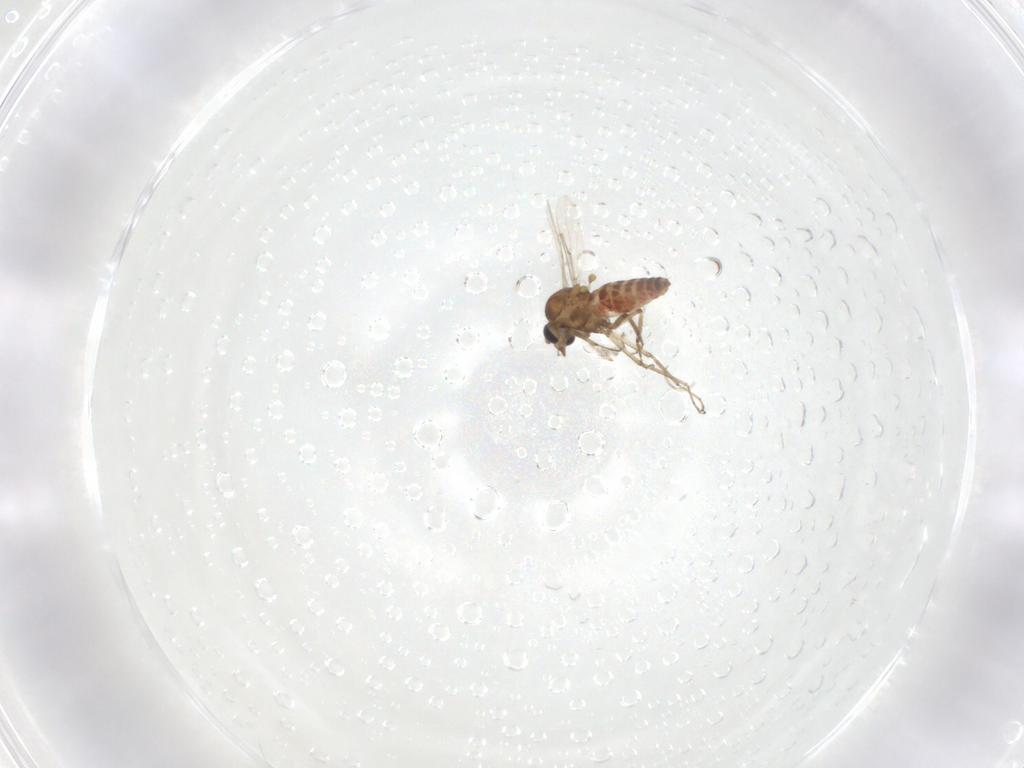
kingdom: Animalia
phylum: Arthropoda
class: Insecta
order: Diptera
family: Ceratopogonidae
